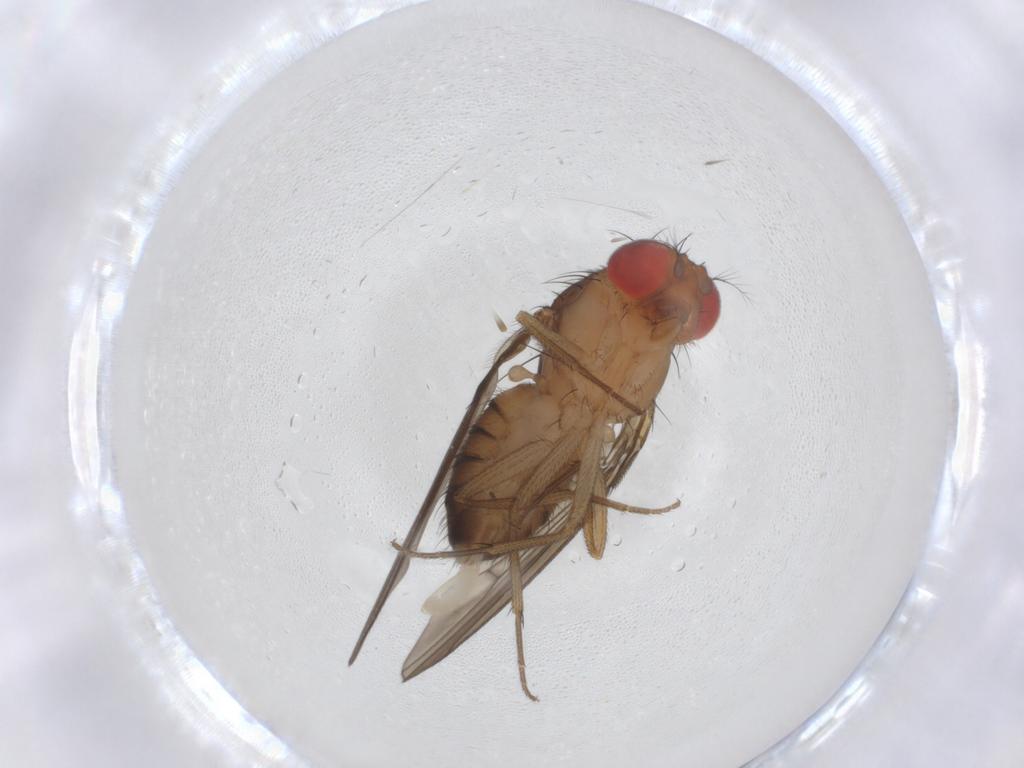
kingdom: Animalia
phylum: Arthropoda
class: Insecta
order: Diptera
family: Drosophilidae
